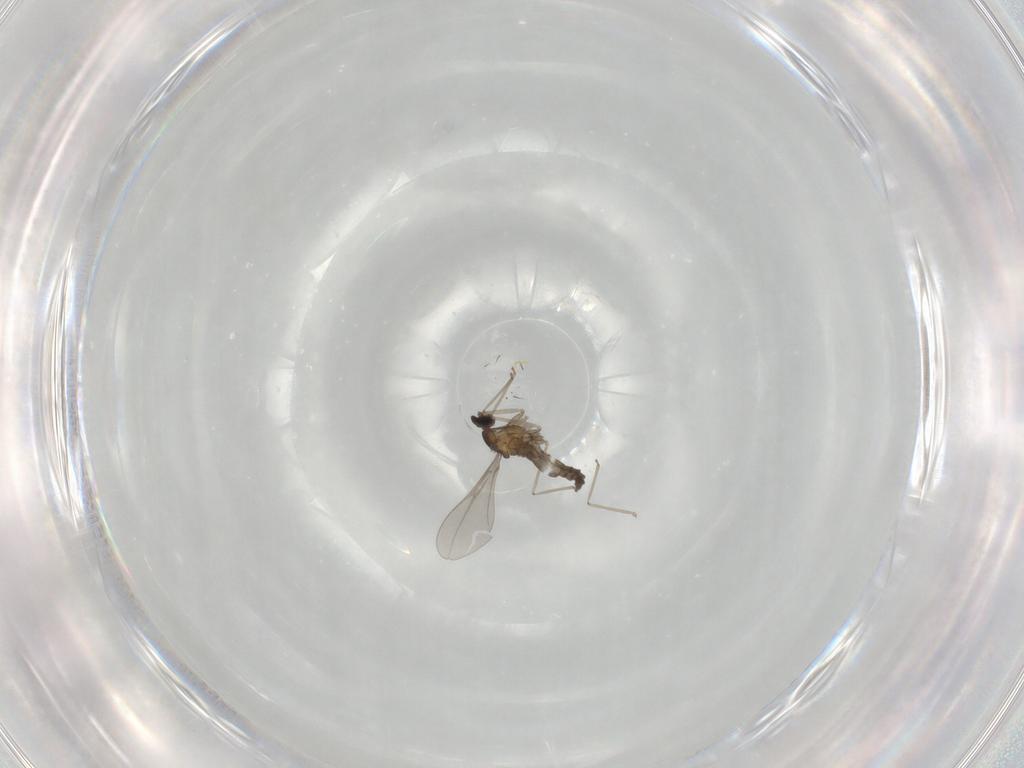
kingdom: Animalia
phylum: Arthropoda
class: Insecta
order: Diptera
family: Cecidomyiidae
